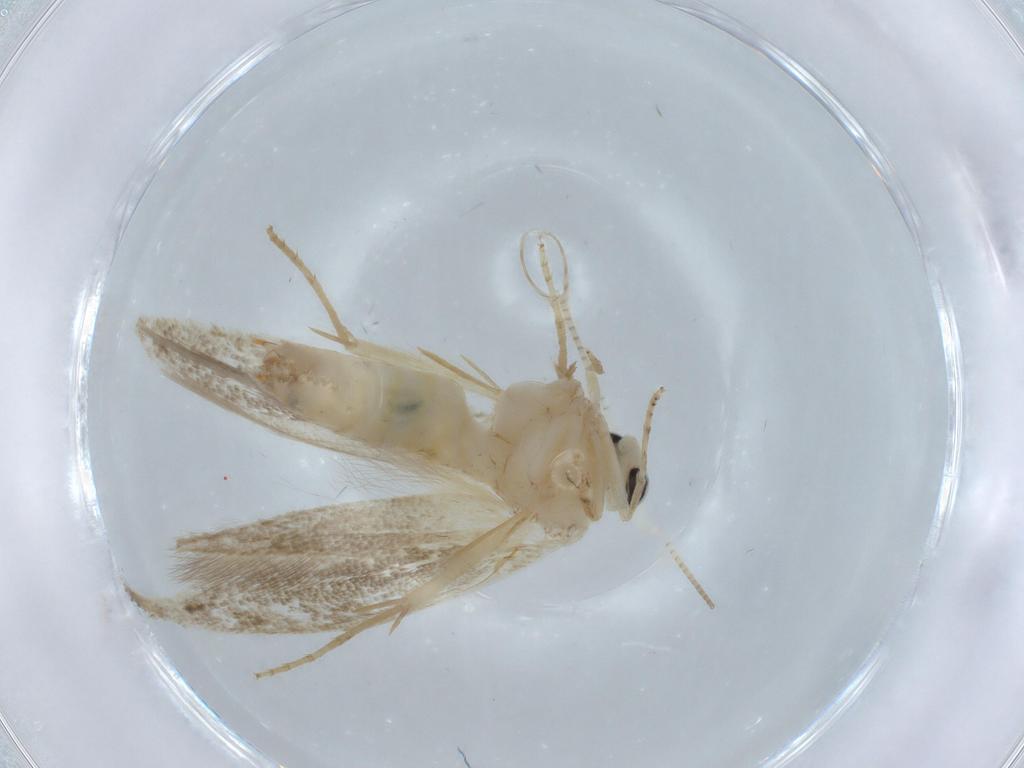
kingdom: Animalia
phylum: Arthropoda
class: Insecta
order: Lepidoptera
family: Bucculatricidae
